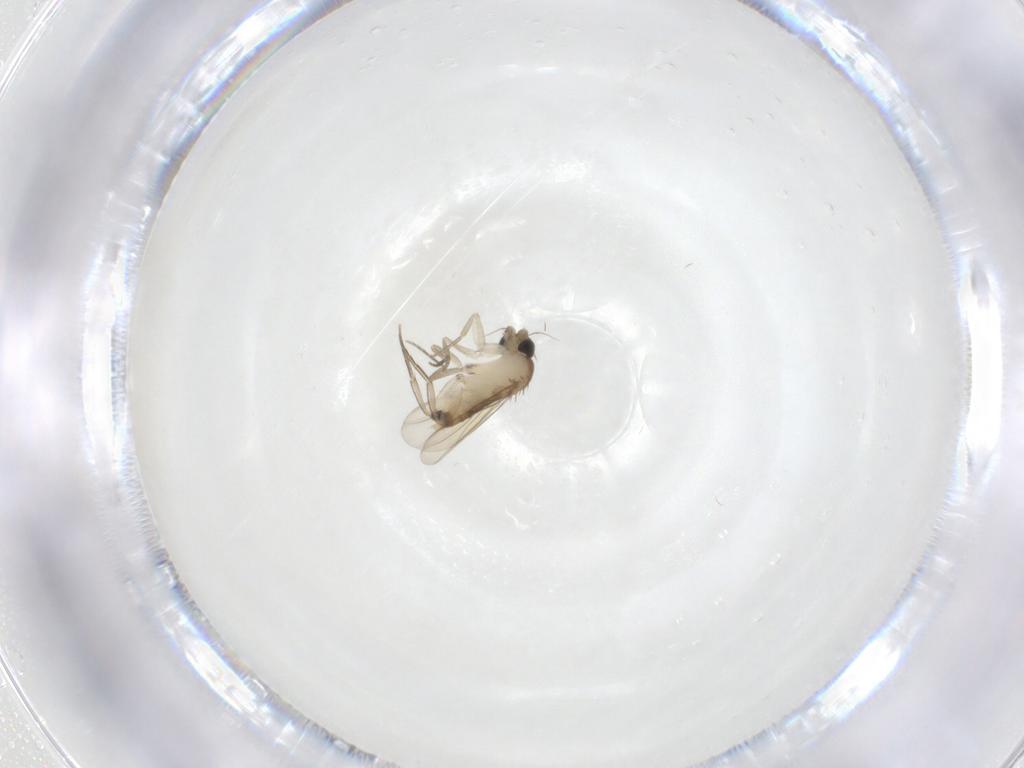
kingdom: Animalia
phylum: Arthropoda
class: Insecta
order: Diptera
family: Phoridae
